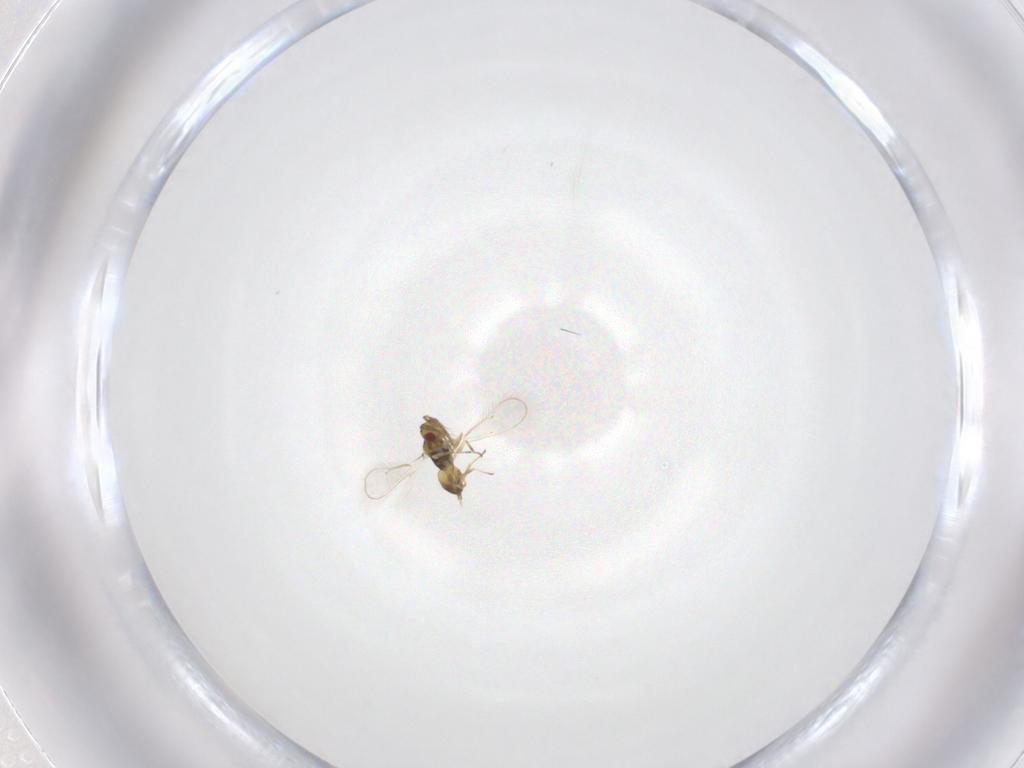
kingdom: Animalia
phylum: Arthropoda
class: Insecta
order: Hymenoptera
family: Eulophidae
